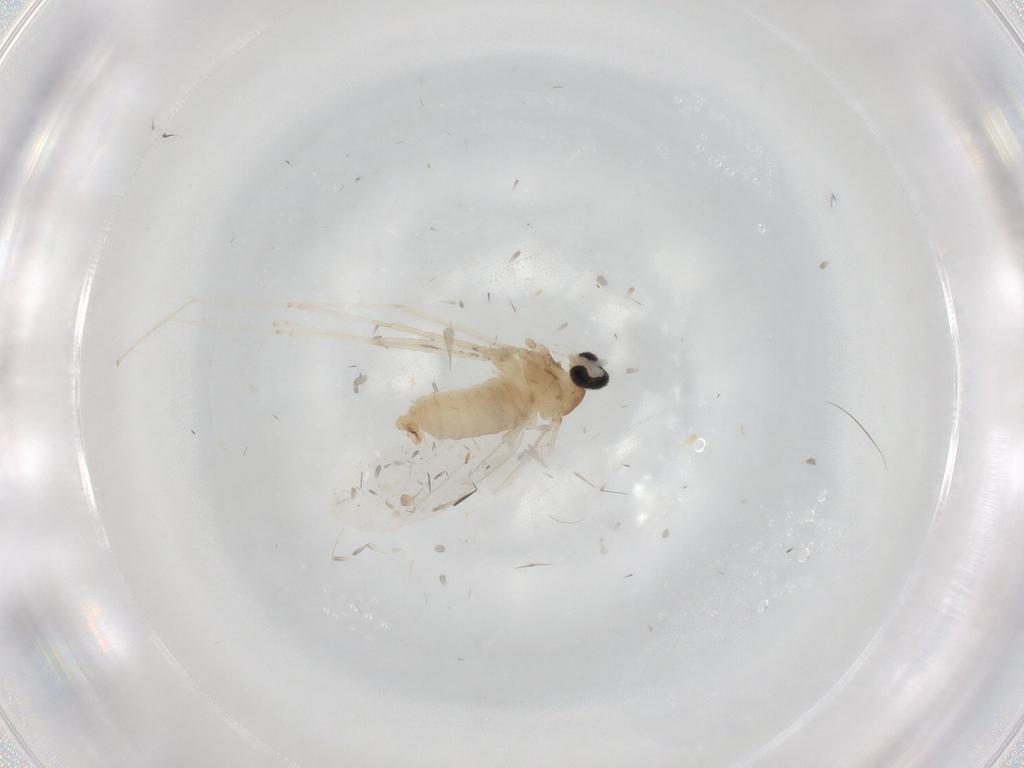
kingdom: Animalia
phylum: Arthropoda
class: Insecta
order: Diptera
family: Cecidomyiidae
